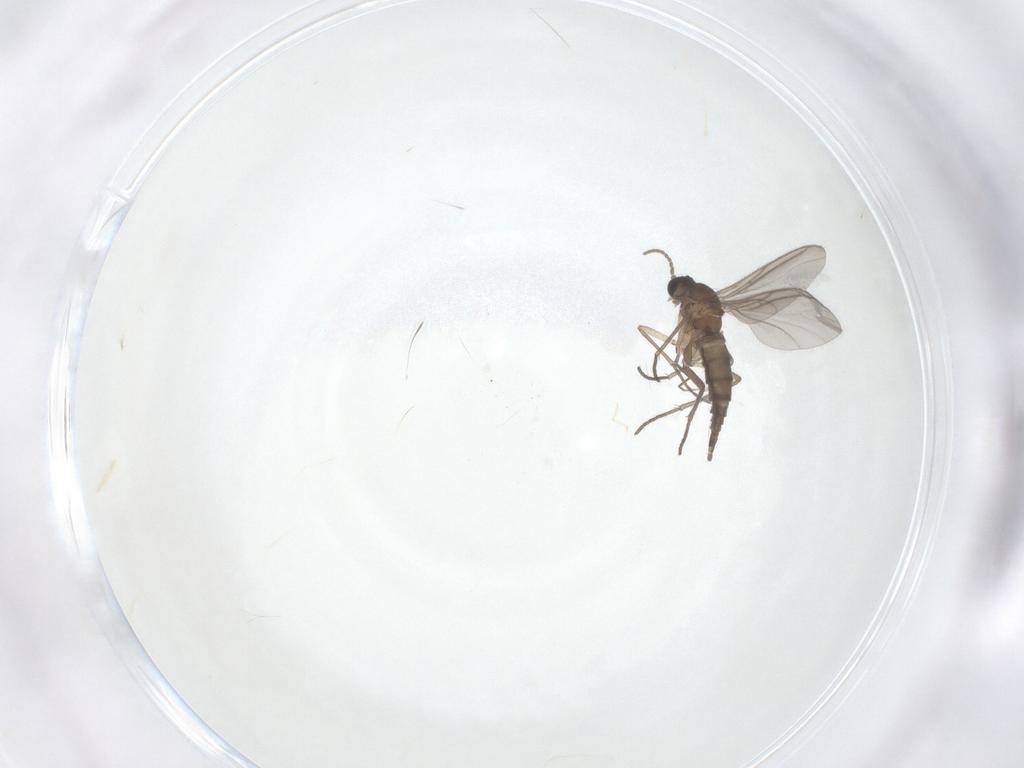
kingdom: Animalia
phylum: Arthropoda
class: Insecta
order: Diptera
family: Sciaridae
